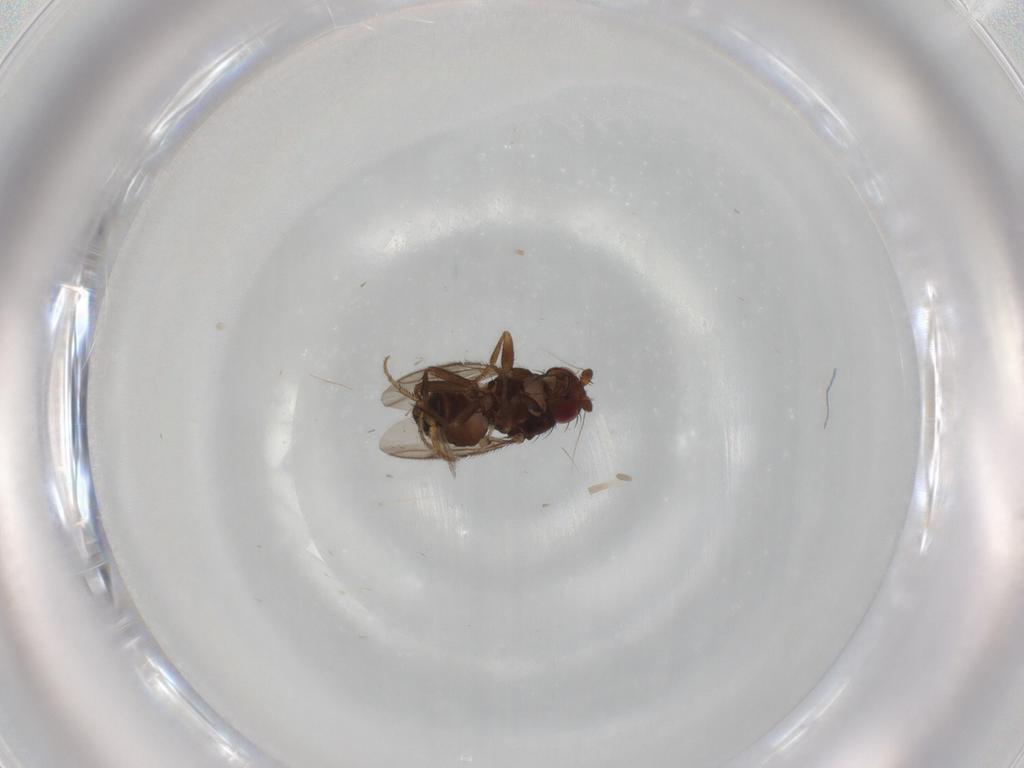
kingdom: Animalia
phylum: Arthropoda
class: Insecta
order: Diptera
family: Sphaeroceridae
